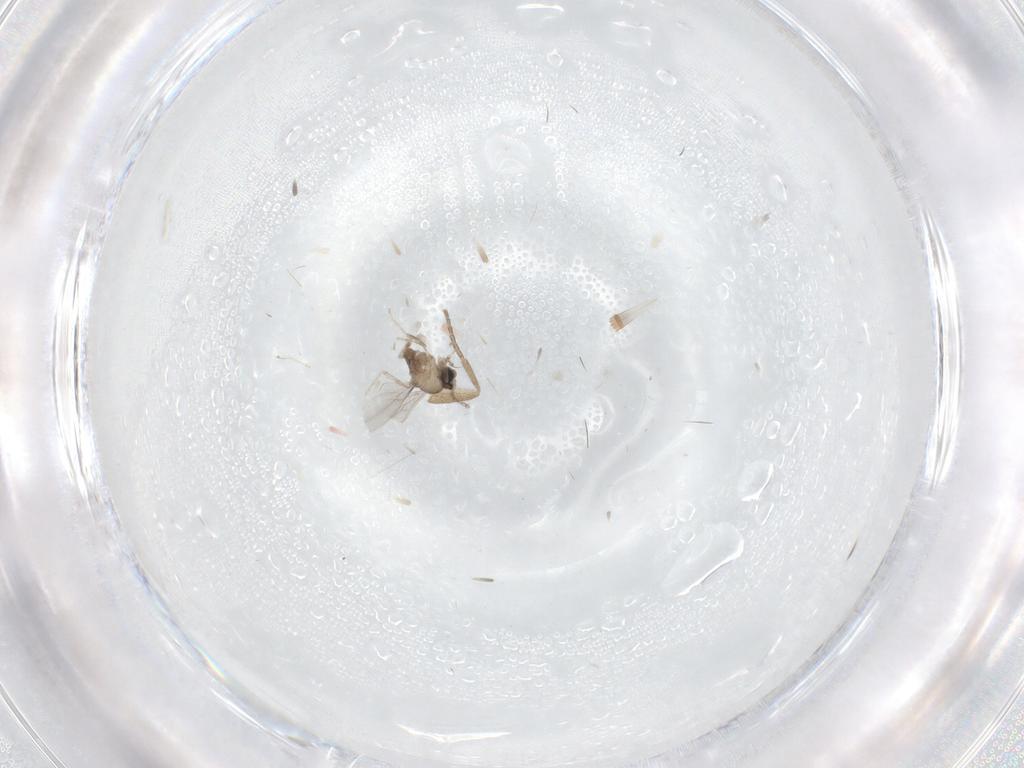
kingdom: Animalia
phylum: Arthropoda
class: Insecta
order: Diptera
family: Cecidomyiidae
